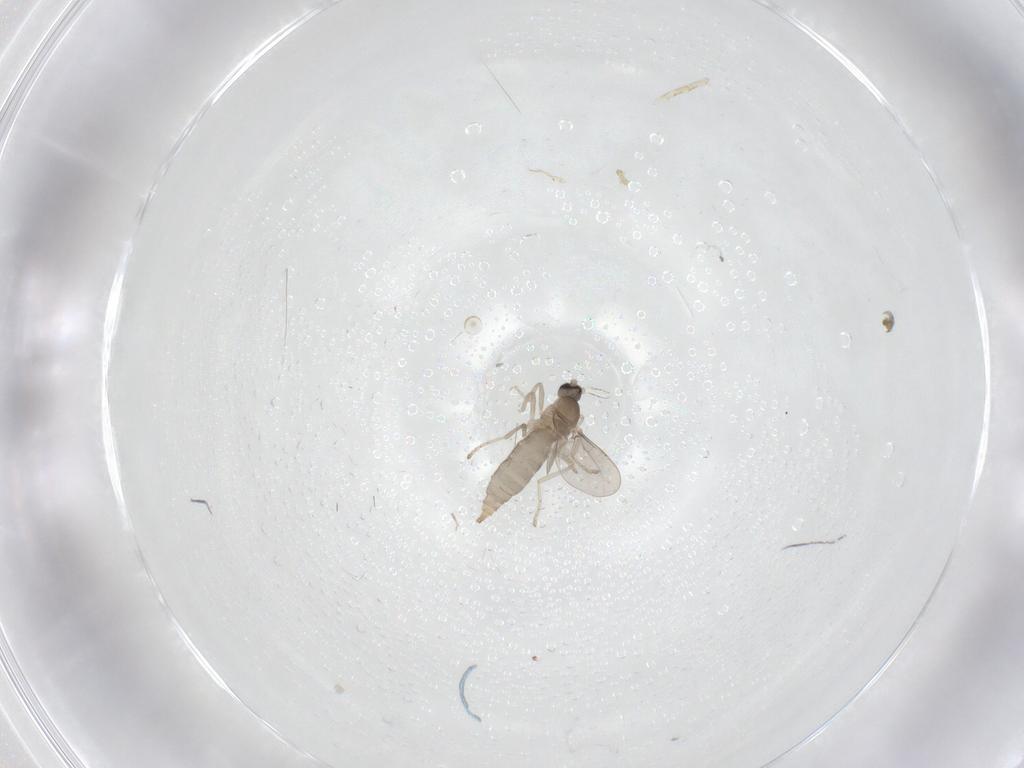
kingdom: Animalia
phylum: Arthropoda
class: Insecta
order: Diptera
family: Cecidomyiidae
